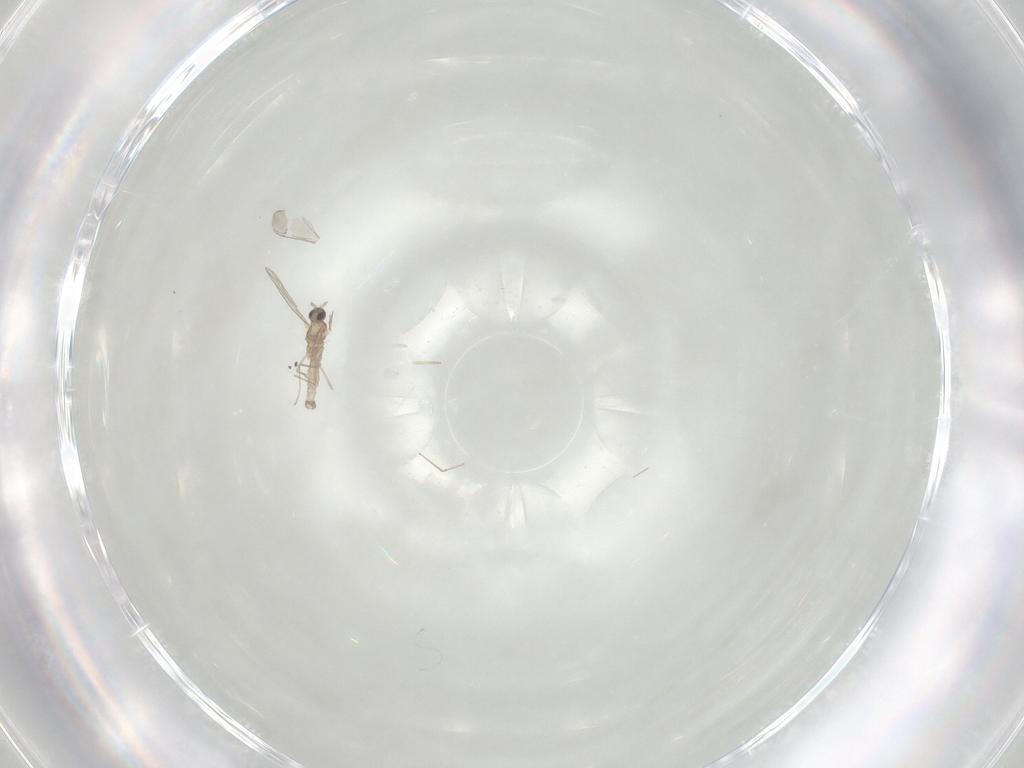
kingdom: Animalia
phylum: Arthropoda
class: Insecta
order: Diptera
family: Cecidomyiidae
